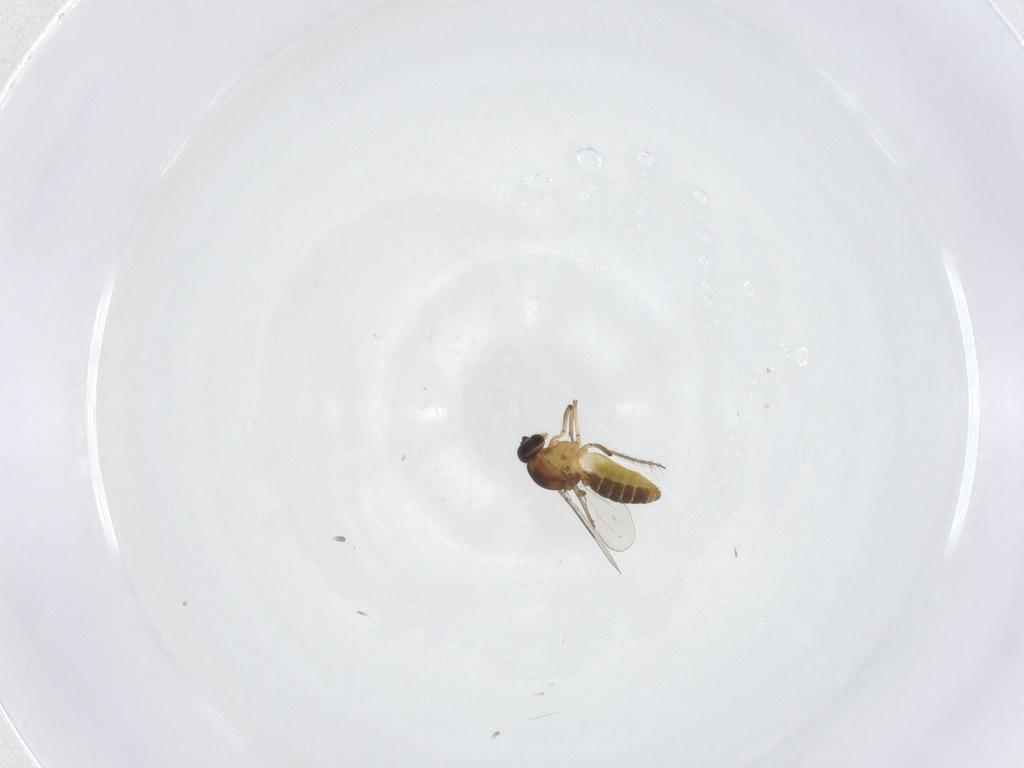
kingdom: Animalia
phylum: Arthropoda
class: Insecta
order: Diptera
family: Ceratopogonidae
